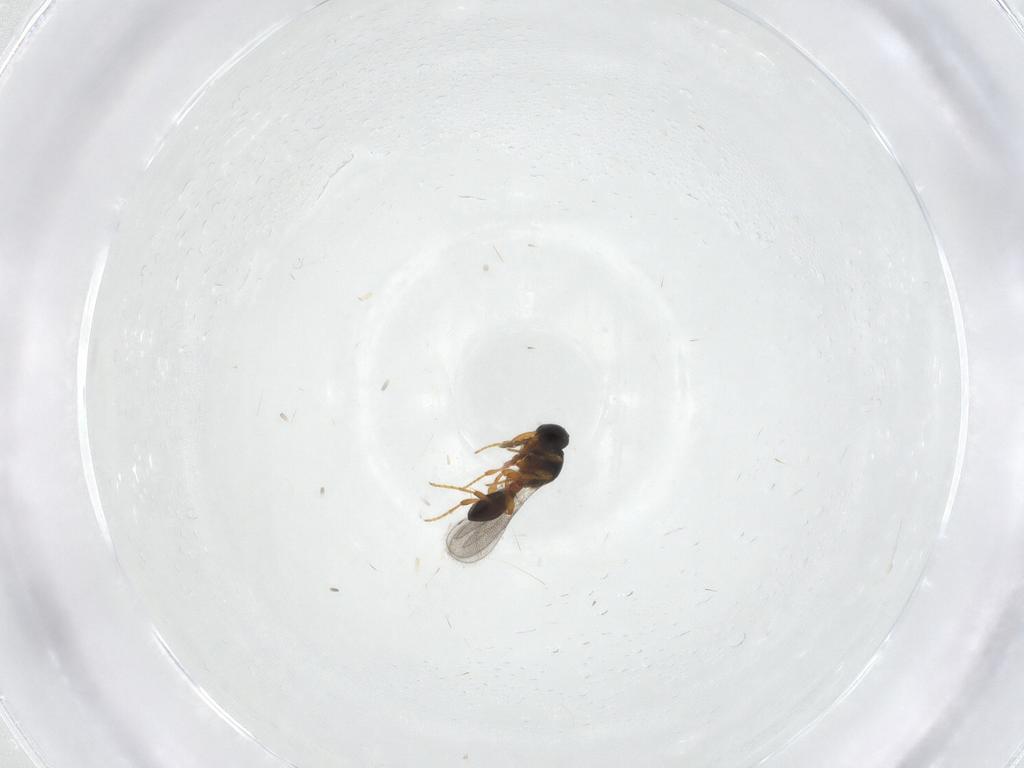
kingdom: Animalia
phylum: Arthropoda
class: Insecta
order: Hymenoptera
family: Platygastridae
